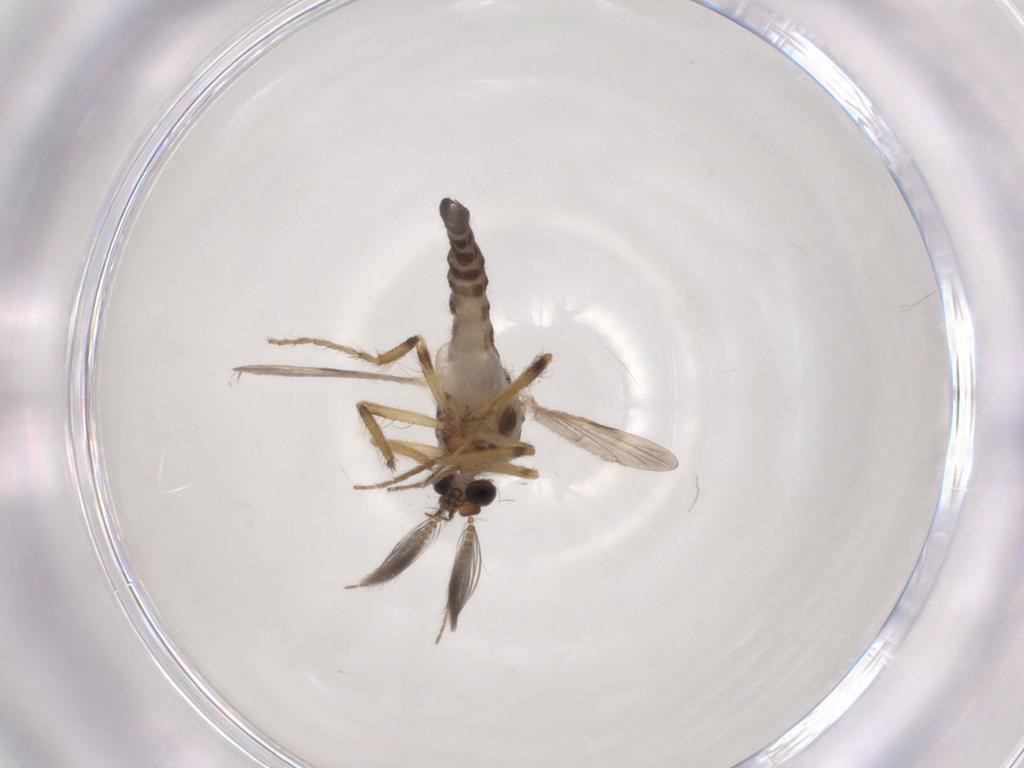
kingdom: Animalia
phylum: Arthropoda
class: Insecta
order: Diptera
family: Ceratopogonidae
